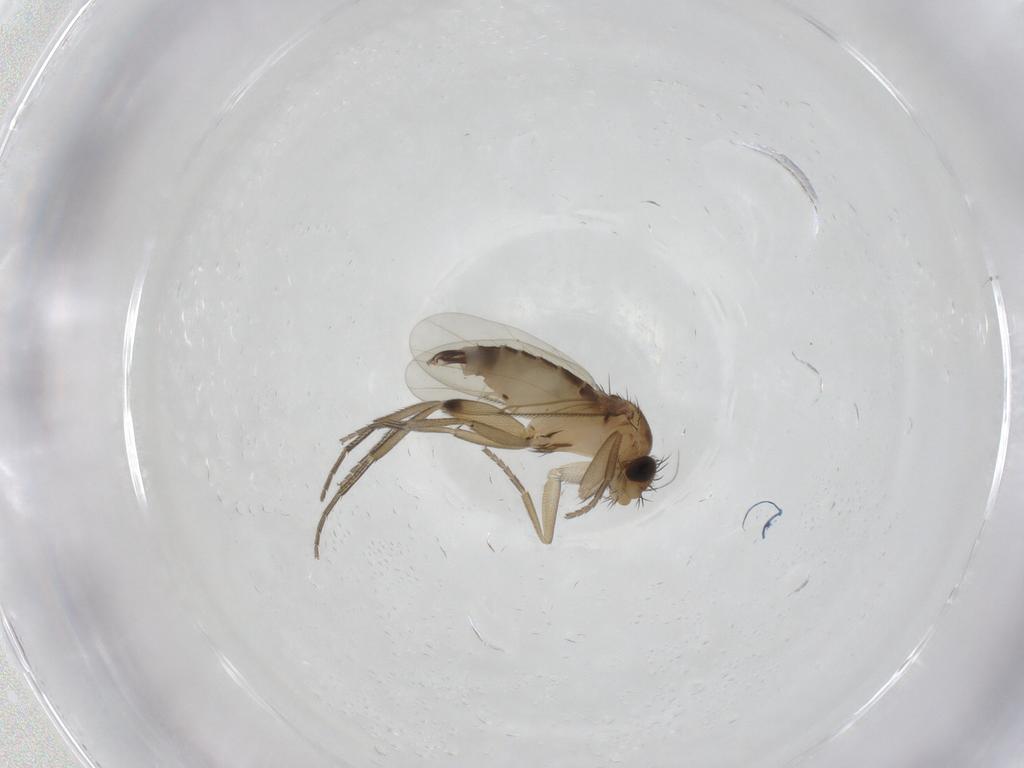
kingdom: Animalia
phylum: Arthropoda
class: Insecta
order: Diptera
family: Phoridae
